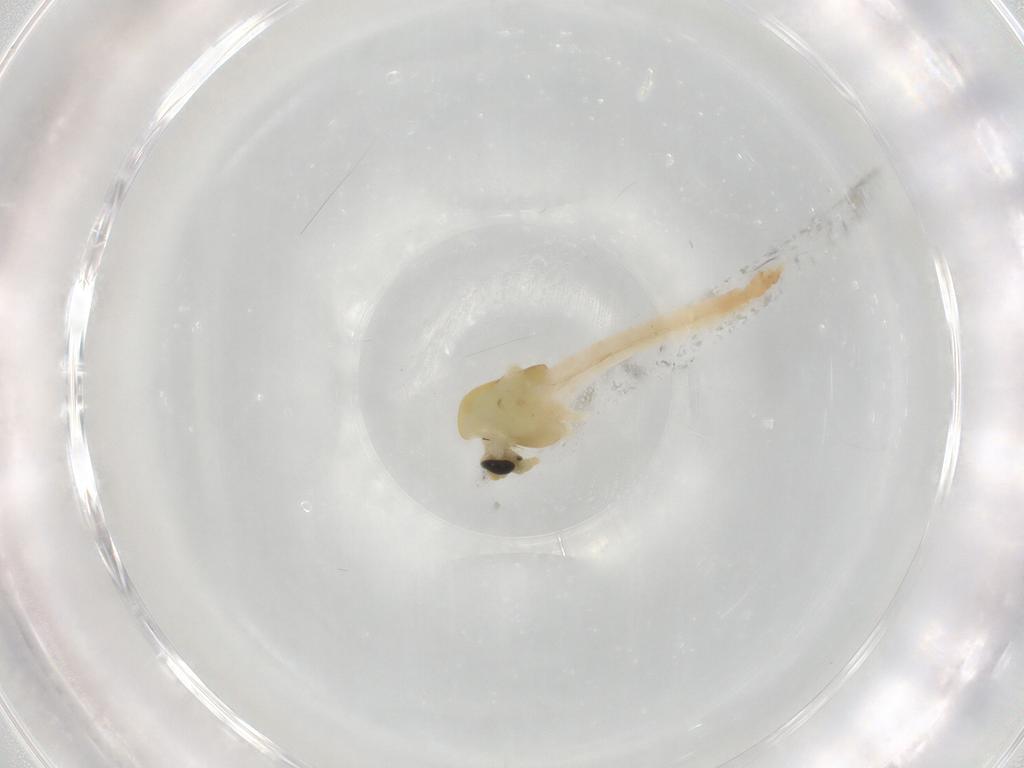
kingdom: Animalia
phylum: Arthropoda
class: Insecta
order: Diptera
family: Chironomidae
